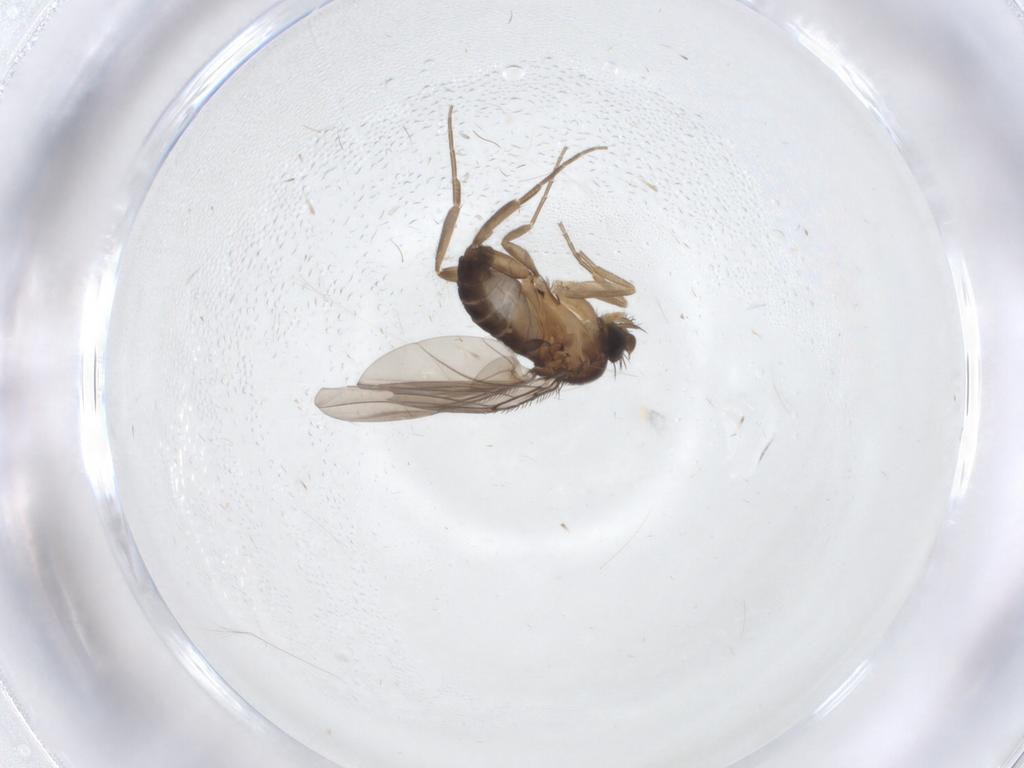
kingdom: Animalia
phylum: Arthropoda
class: Insecta
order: Diptera
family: Phoridae
